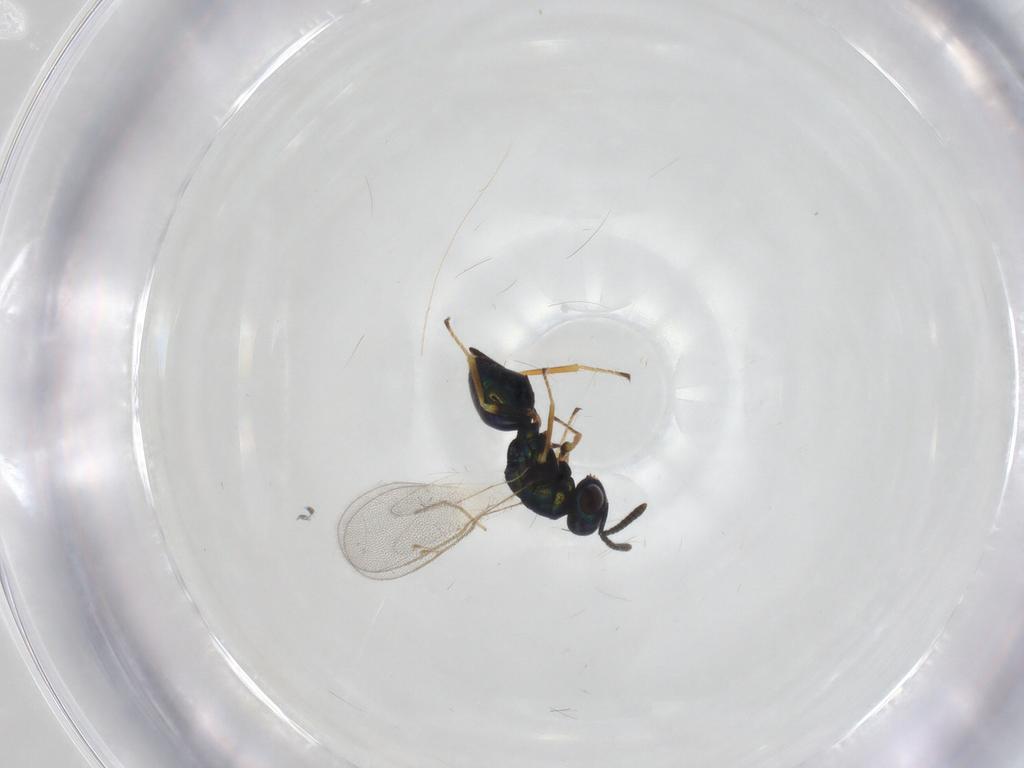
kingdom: Animalia
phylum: Arthropoda
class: Insecta
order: Hymenoptera
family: Pteromalidae
